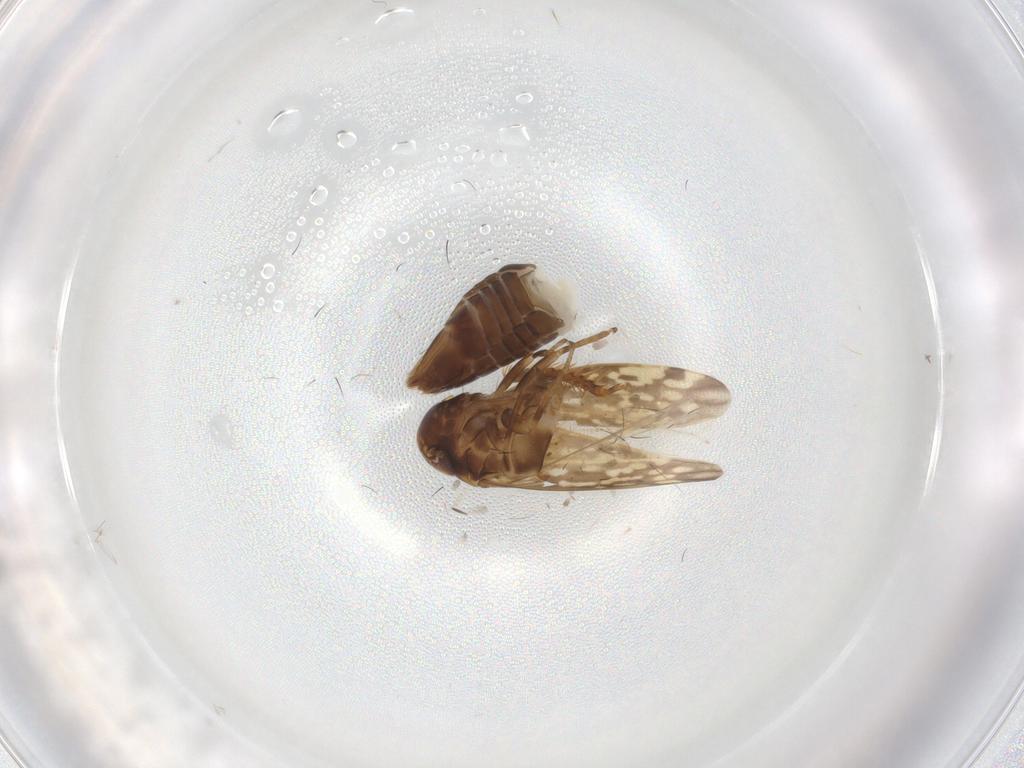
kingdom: Animalia
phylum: Arthropoda
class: Insecta
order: Hemiptera
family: Cicadellidae
